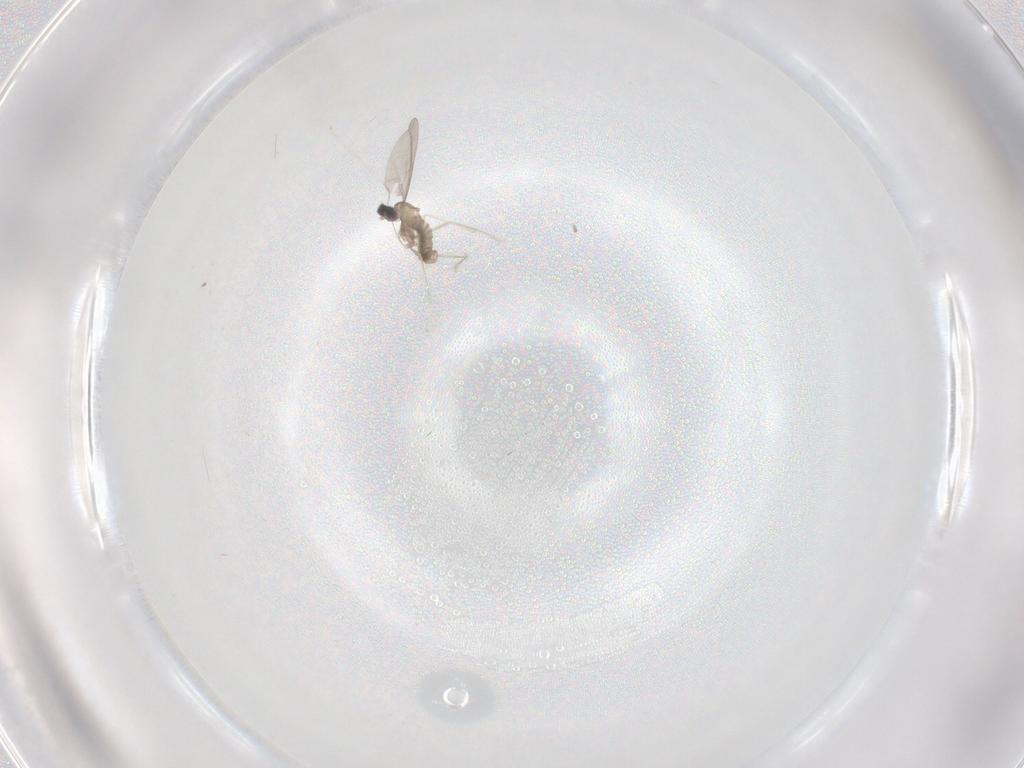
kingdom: Animalia
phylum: Arthropoda
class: Insecta
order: Diptera
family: Cecidomyiidae
